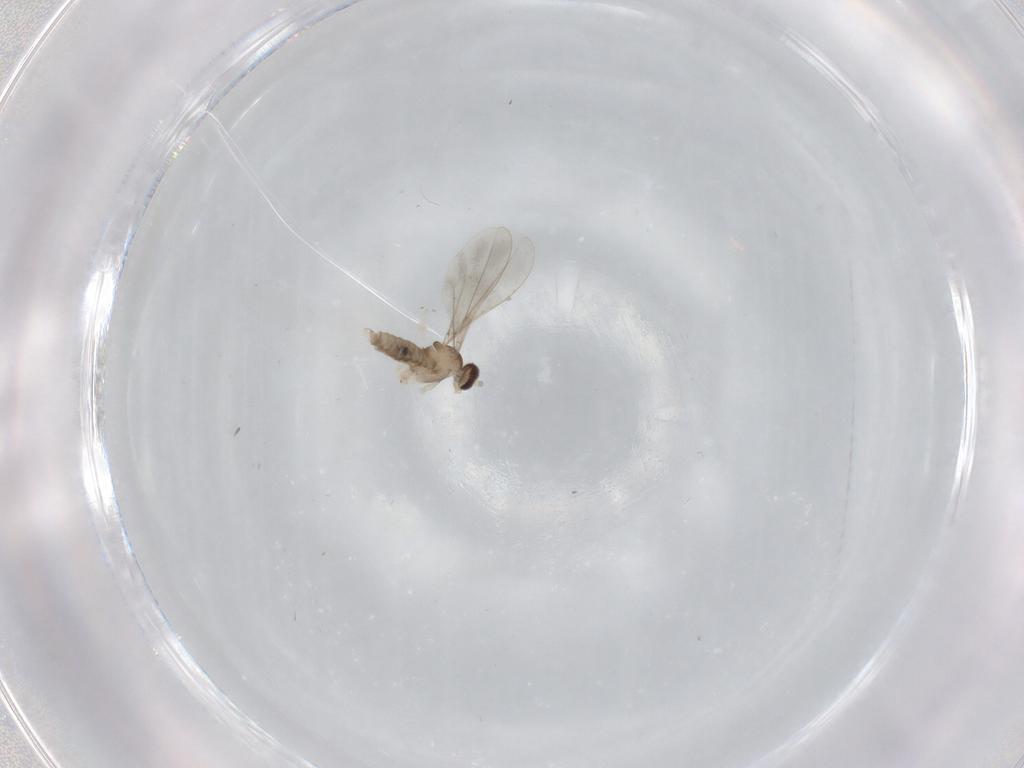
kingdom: Animalia
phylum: Arthropoda
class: Insecta
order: Diptera
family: Cecidomyiidae
